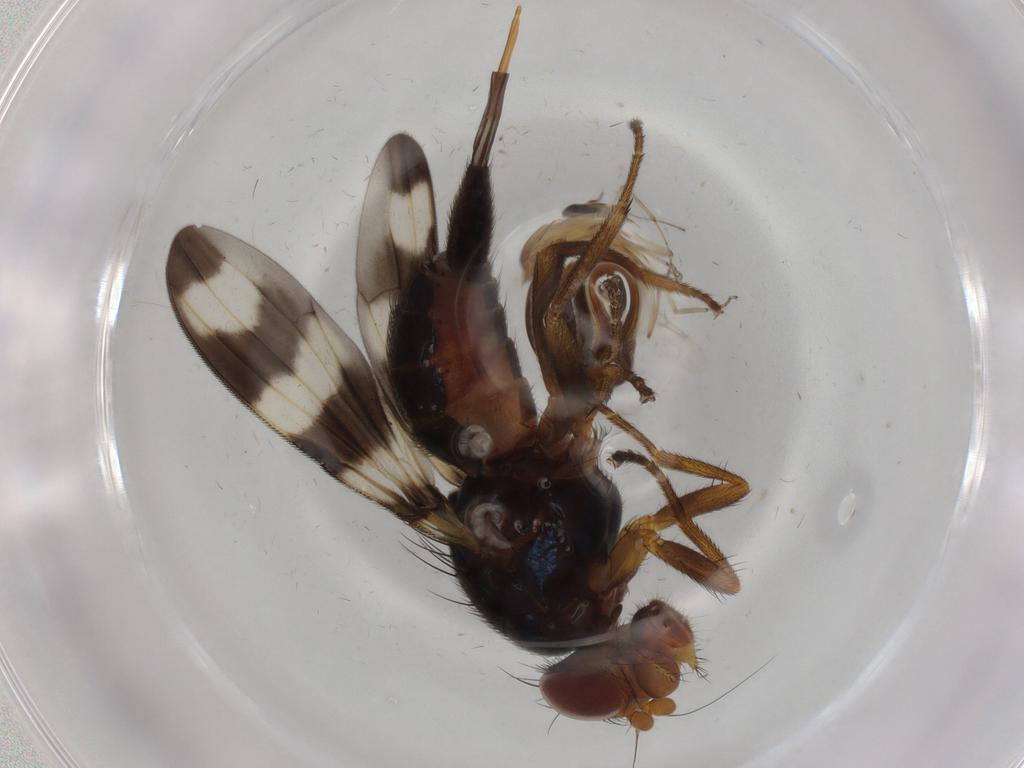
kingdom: Animalia
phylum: Arthropoda
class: Insecta
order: Diptera
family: Ceratopogonidae
